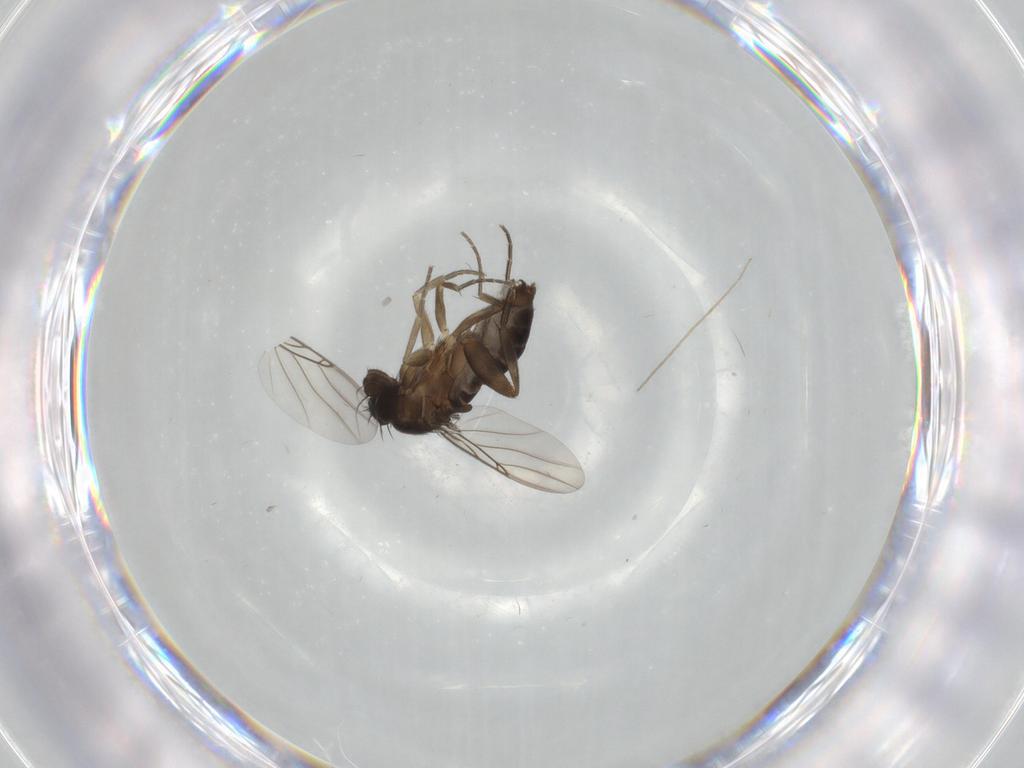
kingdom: Animalia
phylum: Arthropoda
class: Insecta
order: Diptera
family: Phoridae
